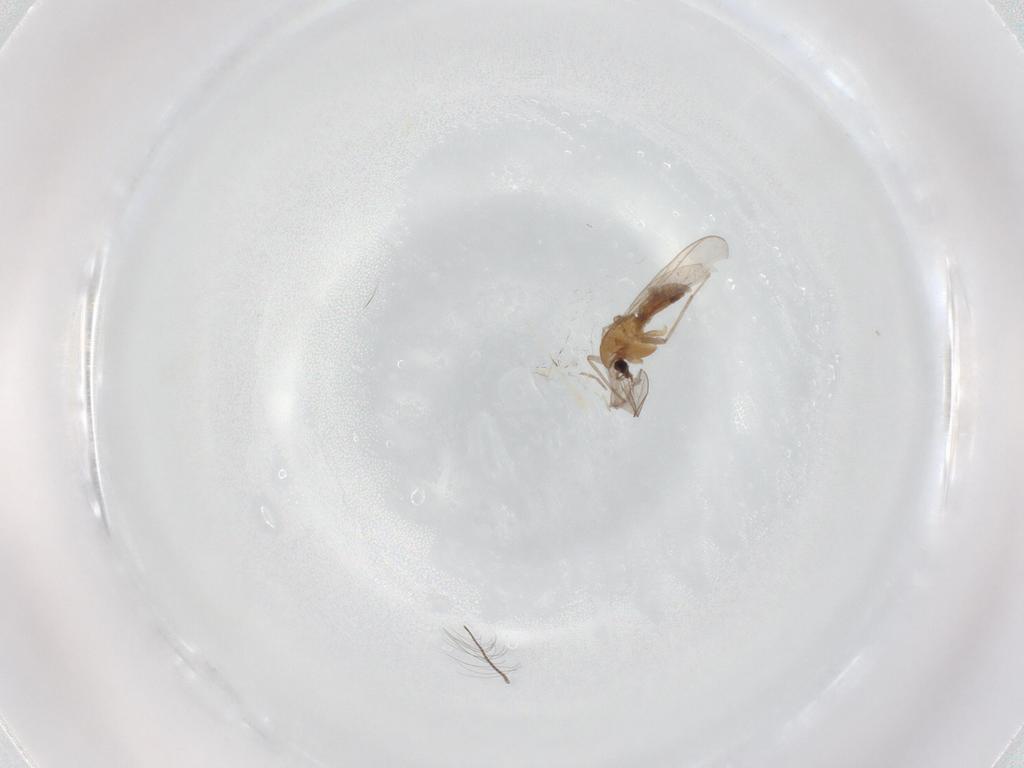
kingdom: Animalia
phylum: Arthropoda
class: Insecta
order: Diptera
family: Chironomidae
